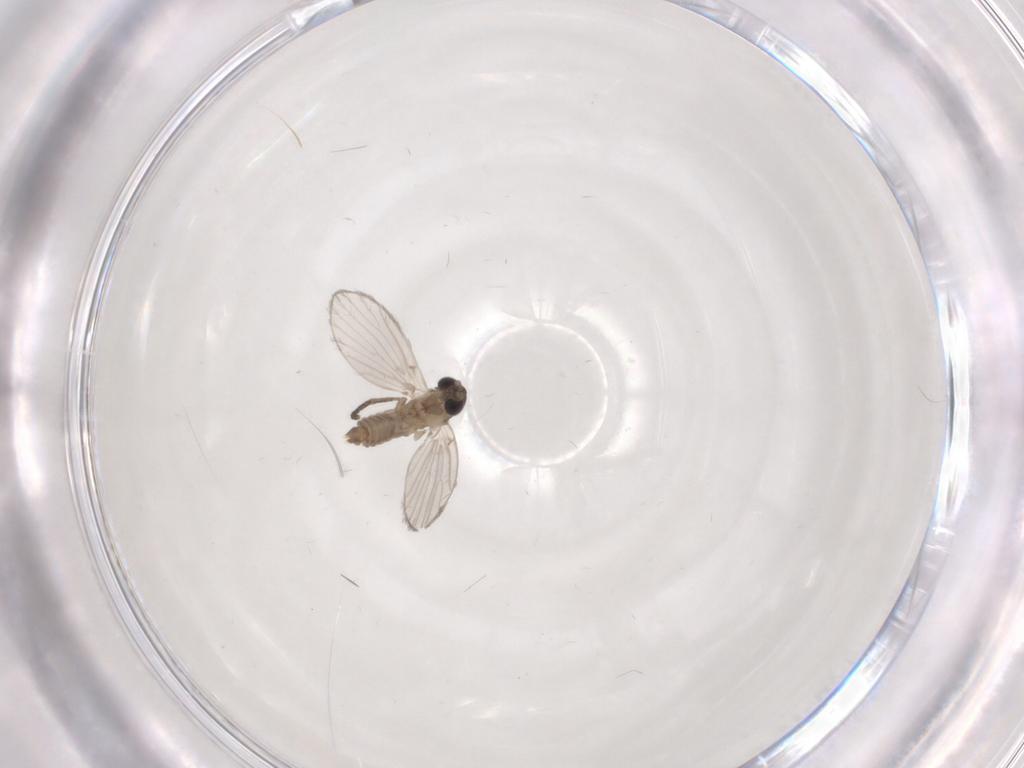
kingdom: Animalia
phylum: Arthropoda
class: Insecta
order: Diptera
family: Psychodidae
